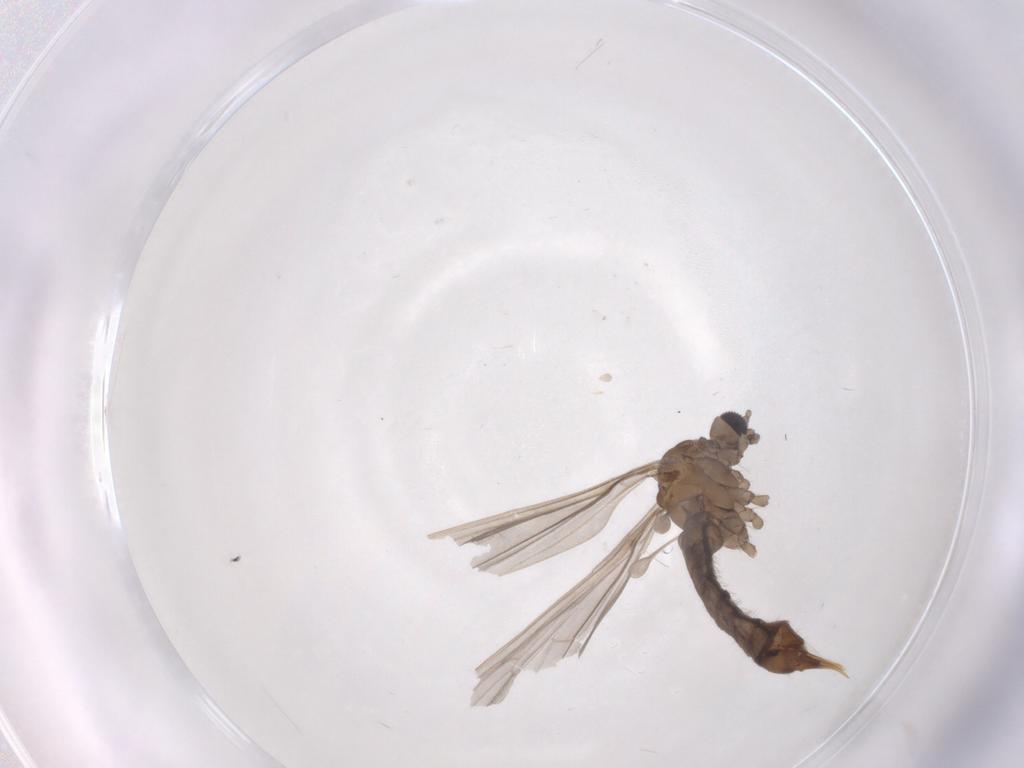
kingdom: Animalia
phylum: Arthropoda
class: Insecta
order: Diptera
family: Limoniidae
